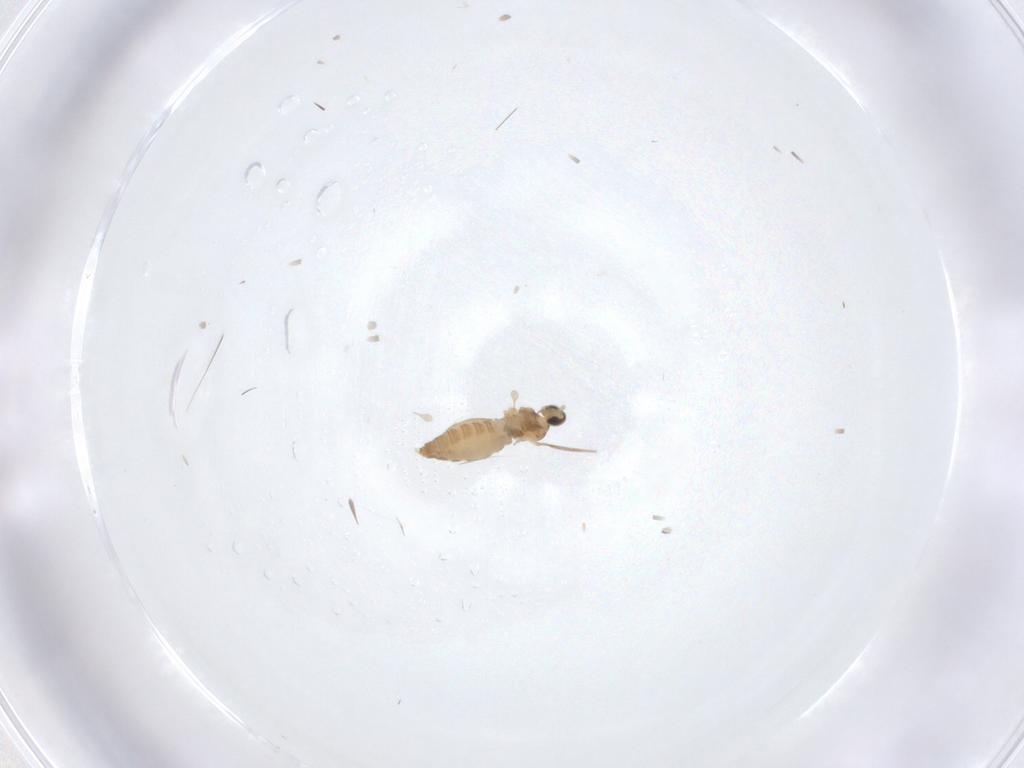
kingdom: Animalia
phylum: Arthropoda
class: Insecta
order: Diptera
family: Cecidomyiidae
